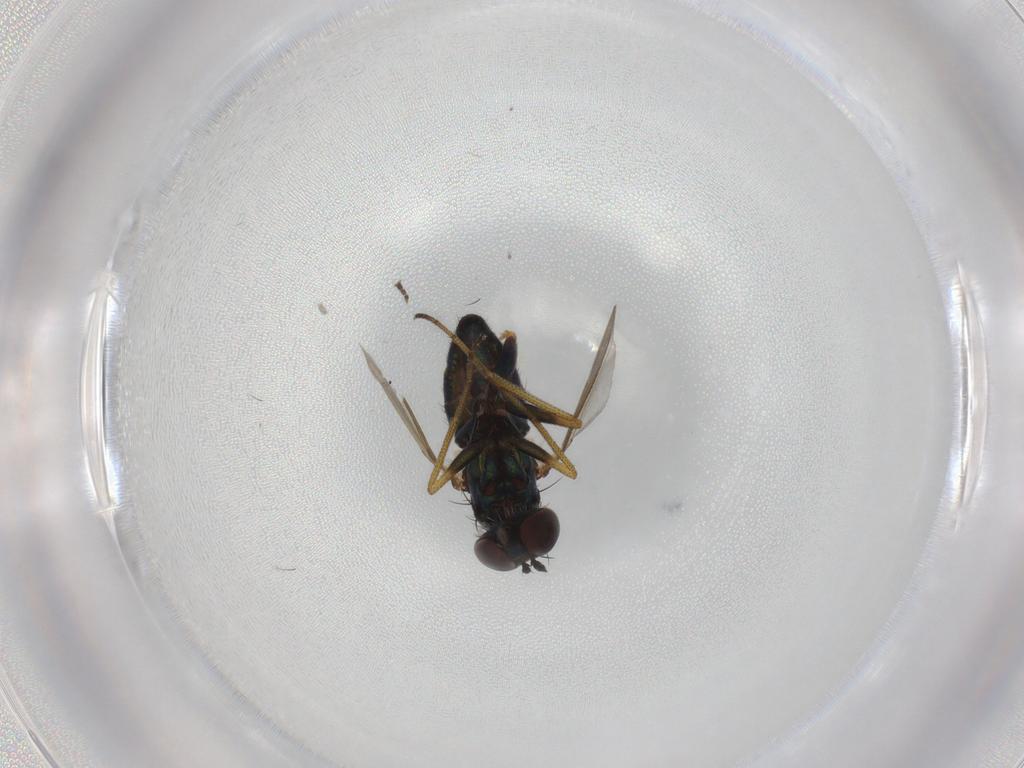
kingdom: Animalia
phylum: Arthropoda
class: Insecta
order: Diptera
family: Dolichopodidae
